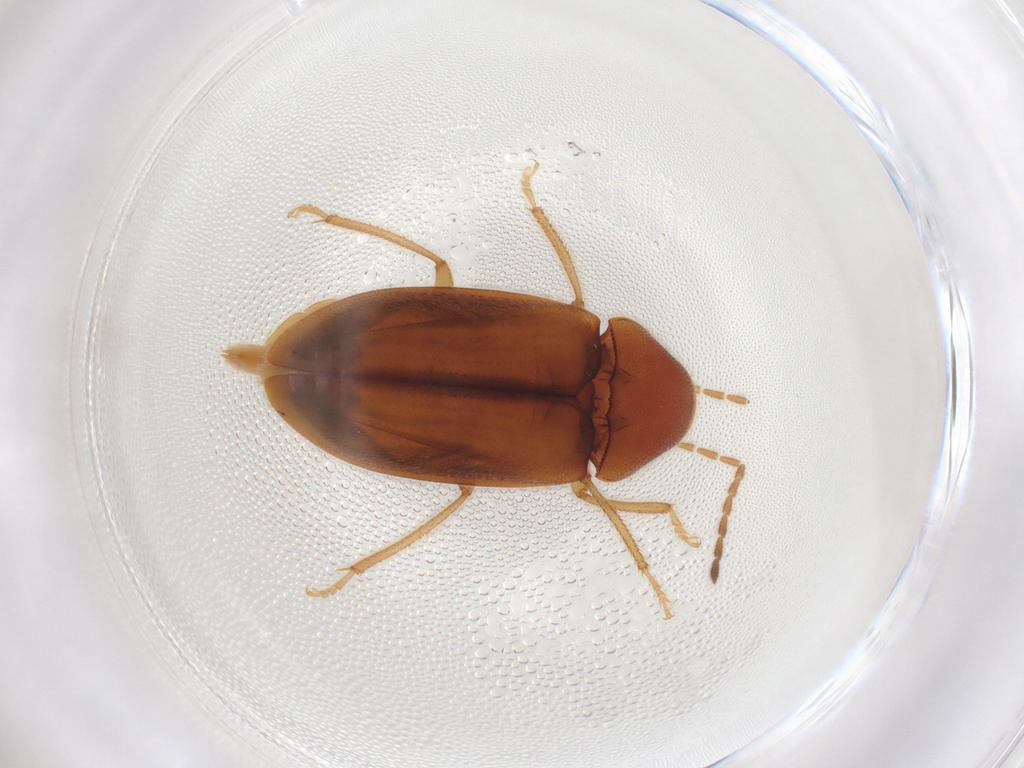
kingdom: Animalia
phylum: Arthropoda
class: Insecta
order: Coleoptera
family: Ptilodactylidae
